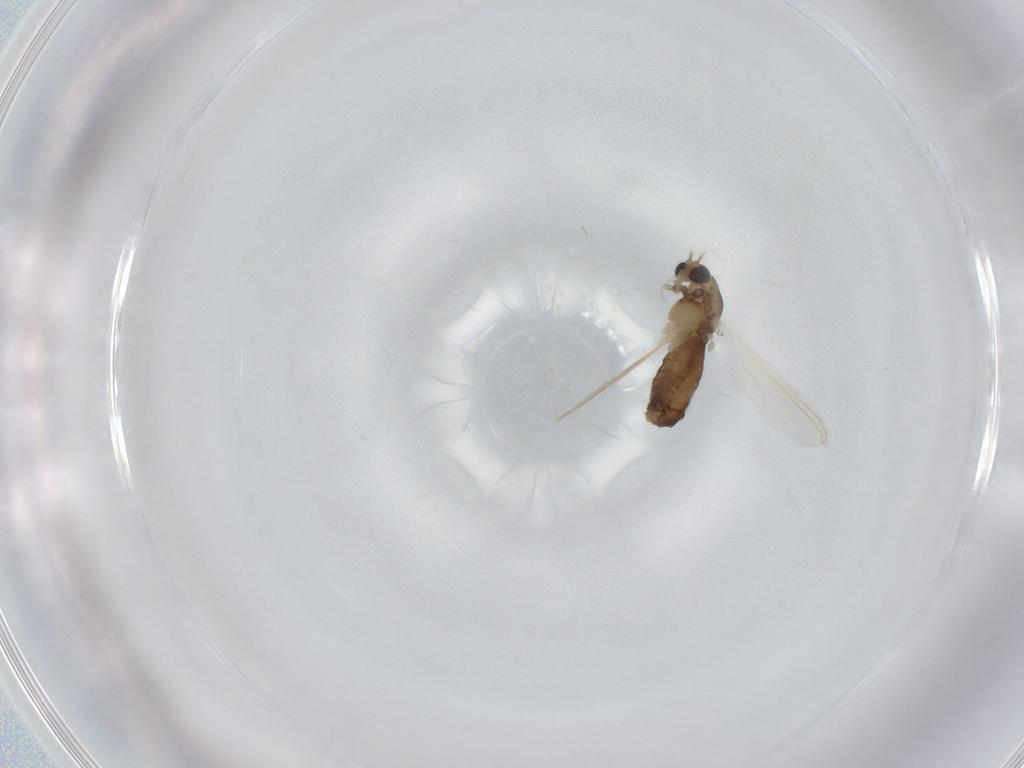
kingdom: Animalia
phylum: Arthropoda
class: Insecta
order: Diptera
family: Chironomidae
